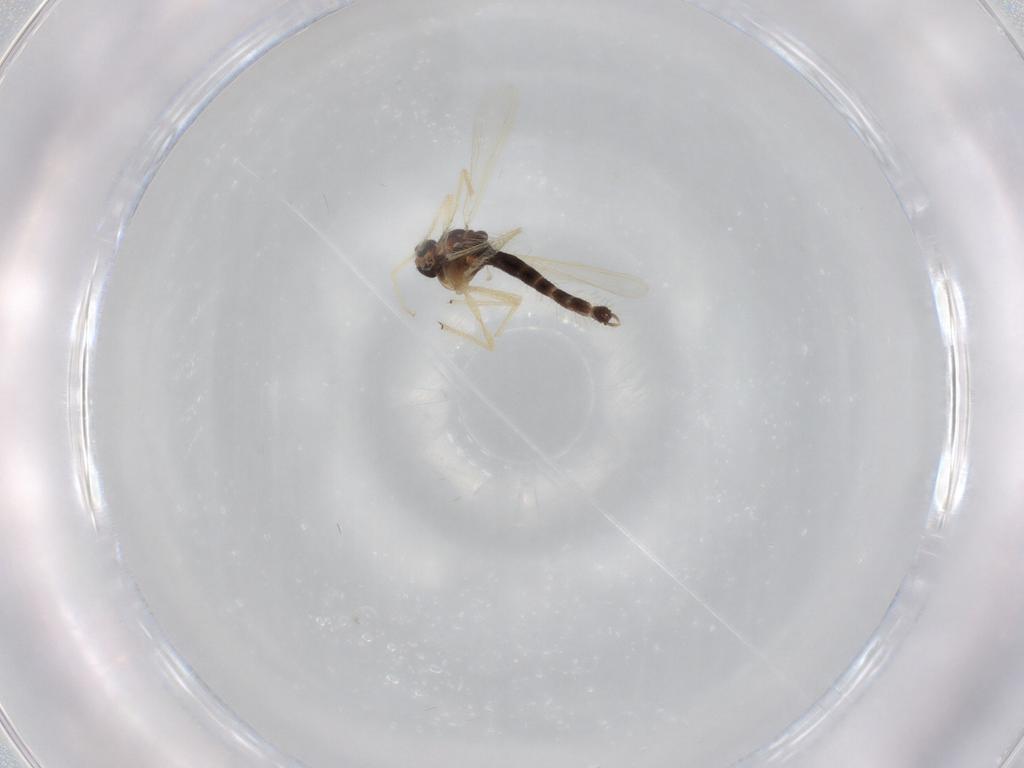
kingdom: Animalia
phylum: Arthropoda
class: Insecta
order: Diptera
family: Chironomidae
